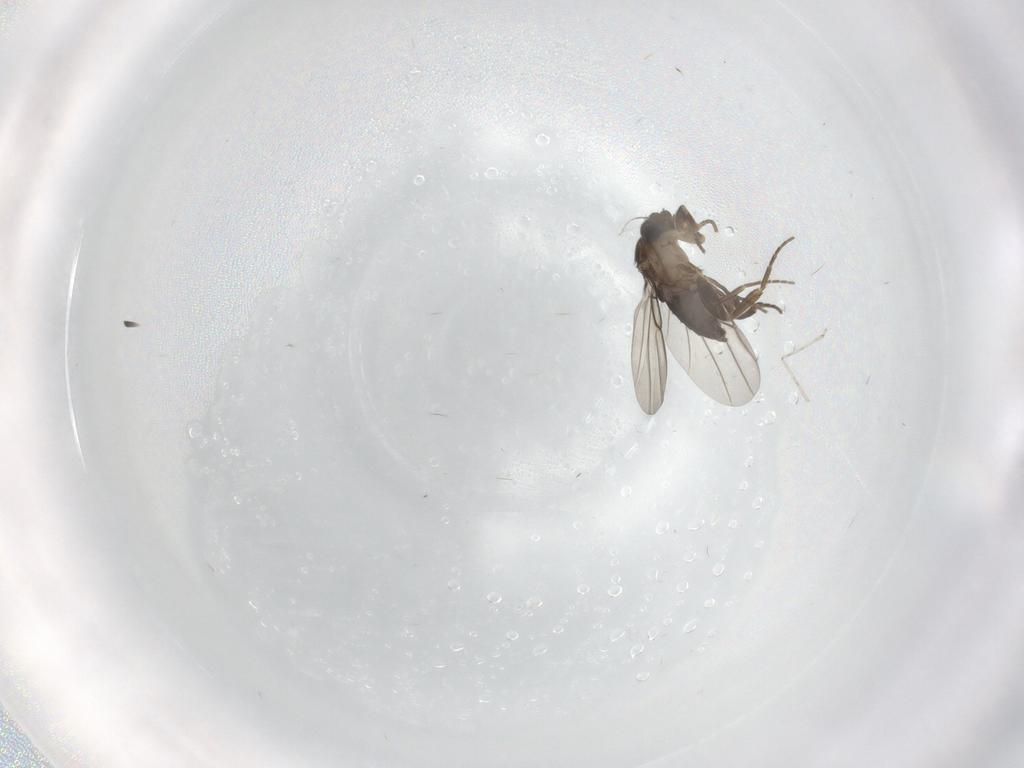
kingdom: Animalia
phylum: Arthropoda
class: Insecta
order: Diptera
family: Cecidomyiidae
